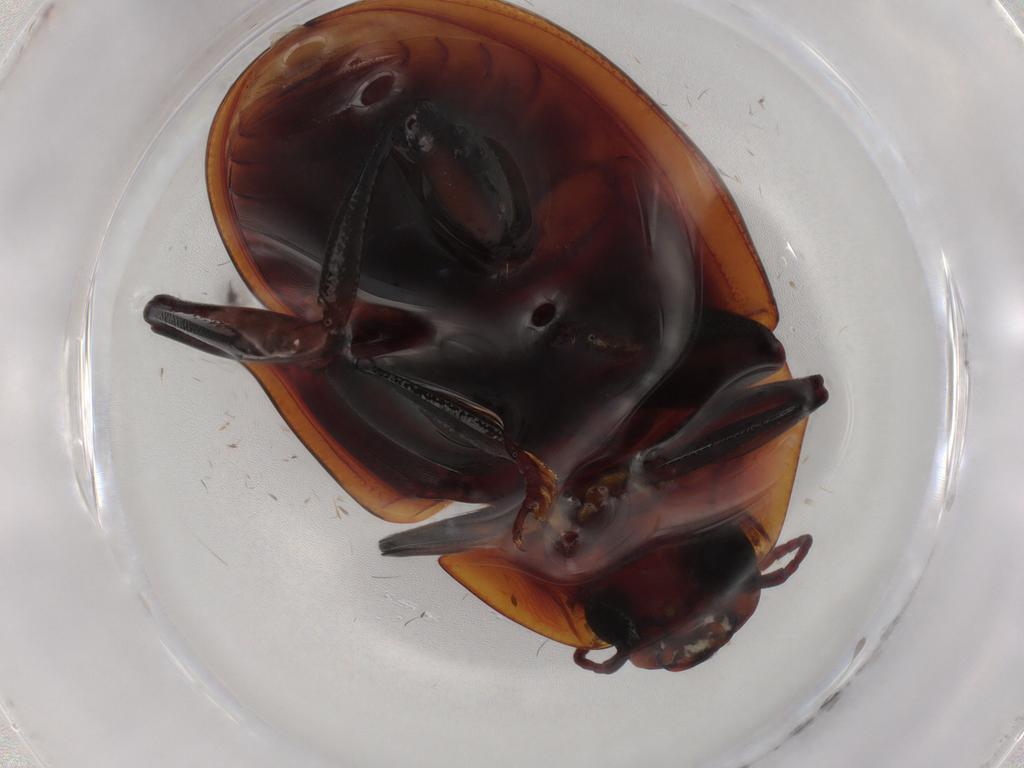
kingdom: Animalia
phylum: Arthropoda
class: Insecta
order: Coleoptera
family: Zopheridae
